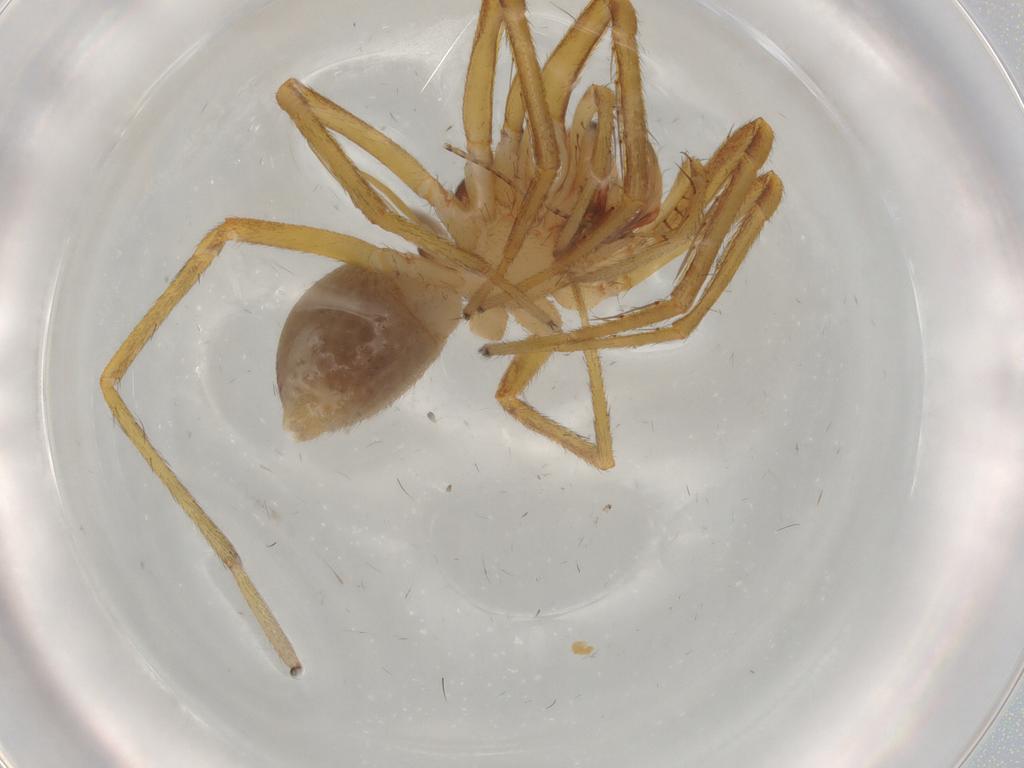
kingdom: Animalia
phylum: Arthropoda
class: Arachnida
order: Araneae
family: Corinnidae
